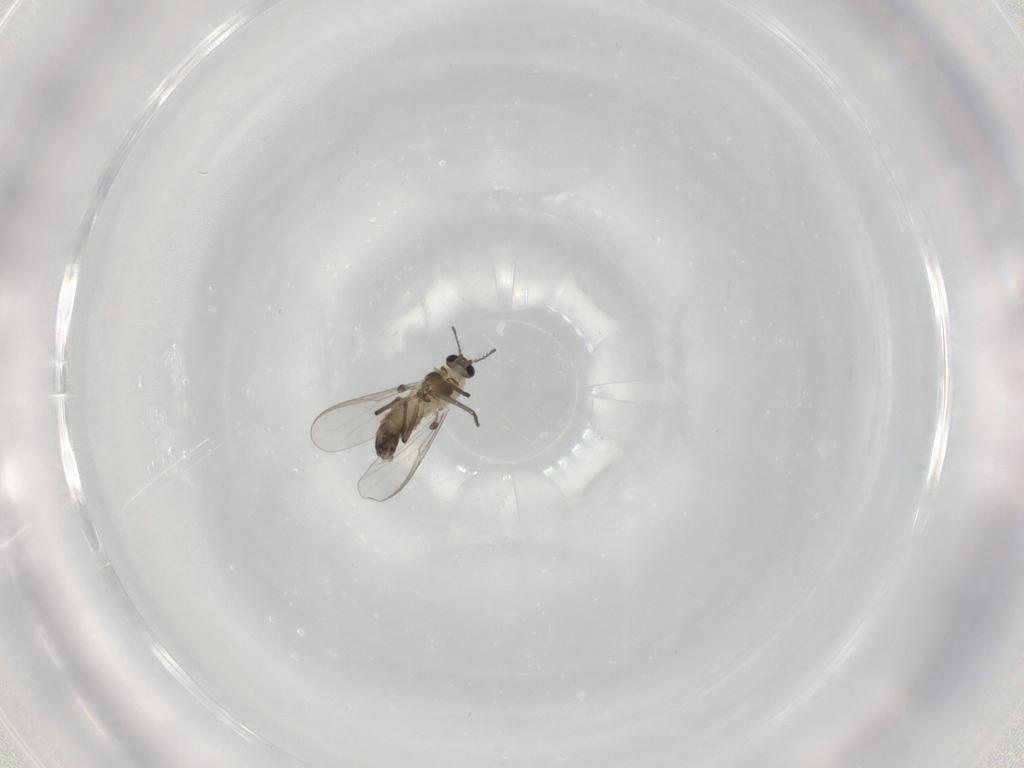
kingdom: Animalia
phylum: Arthropoda
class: Insecta
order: Diptera
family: Chironomidae
